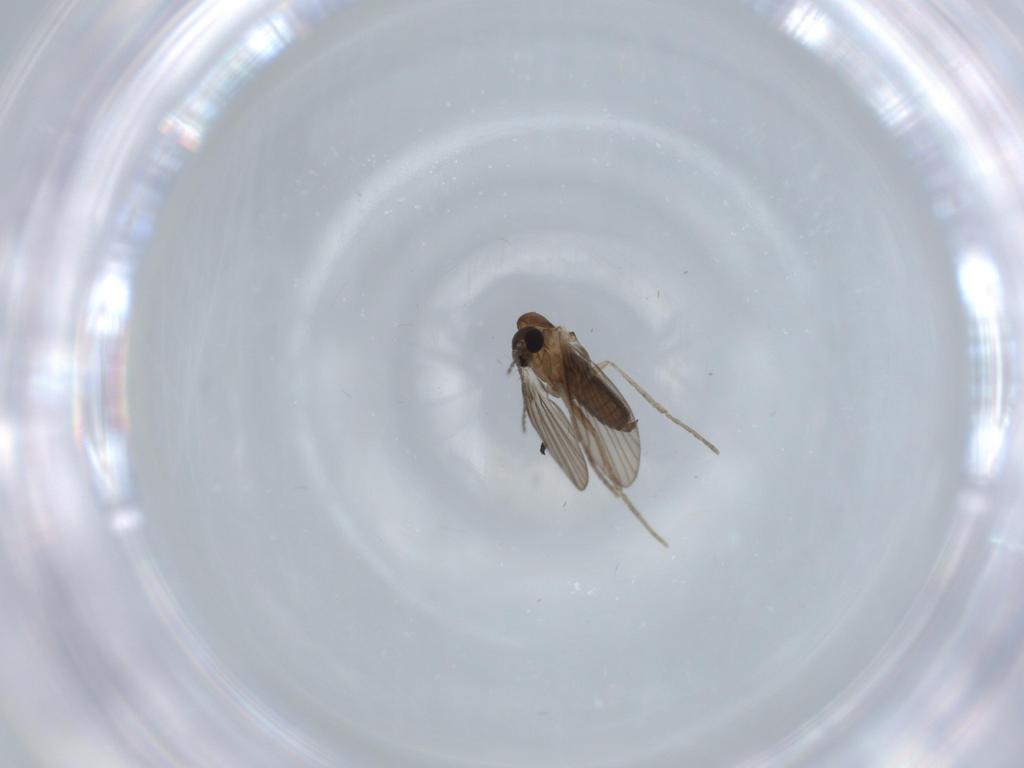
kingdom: Animalia
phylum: Arthropoda
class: Insecta
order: Diptera
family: Psychodidae
